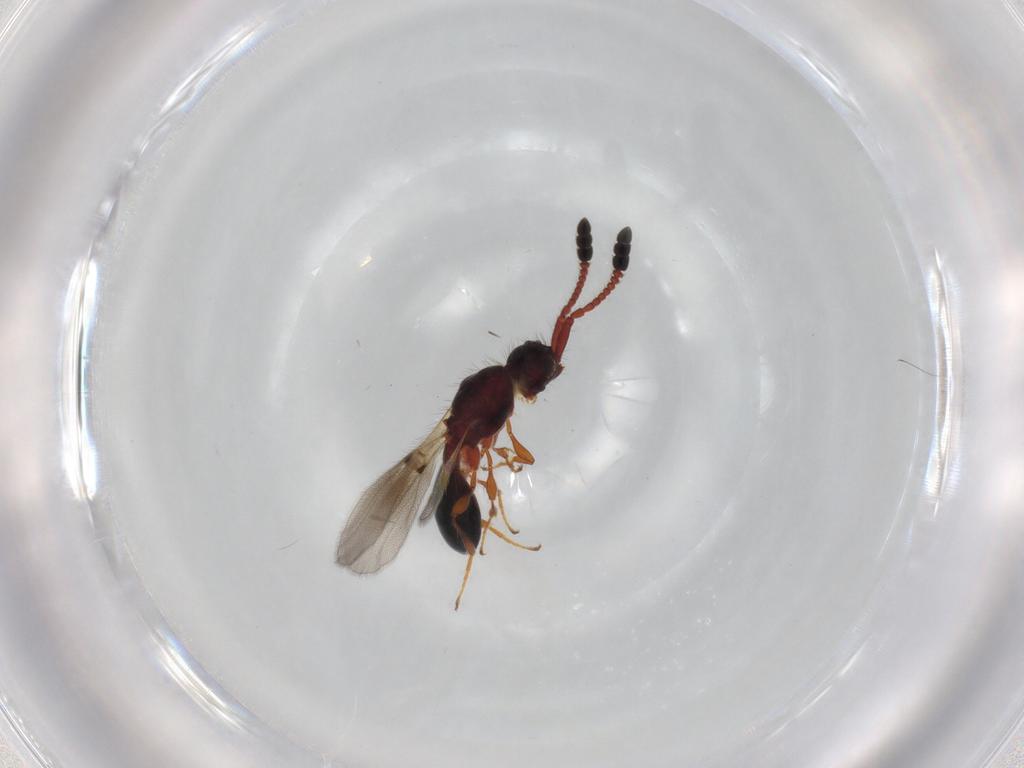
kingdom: Animalia
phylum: Arthropoda
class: Insecta
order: Hymenoptera
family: Diapriidae
